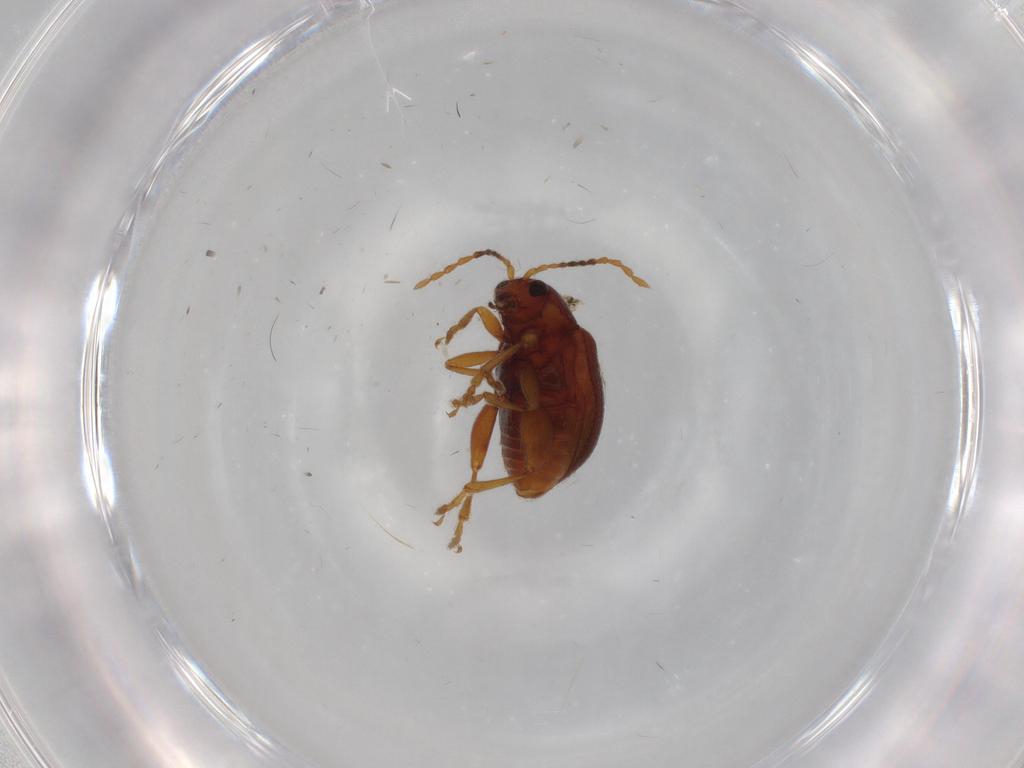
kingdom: Animalia
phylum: Arthropoda
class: Insecta
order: Coleoptera
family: Chrysomelidae
